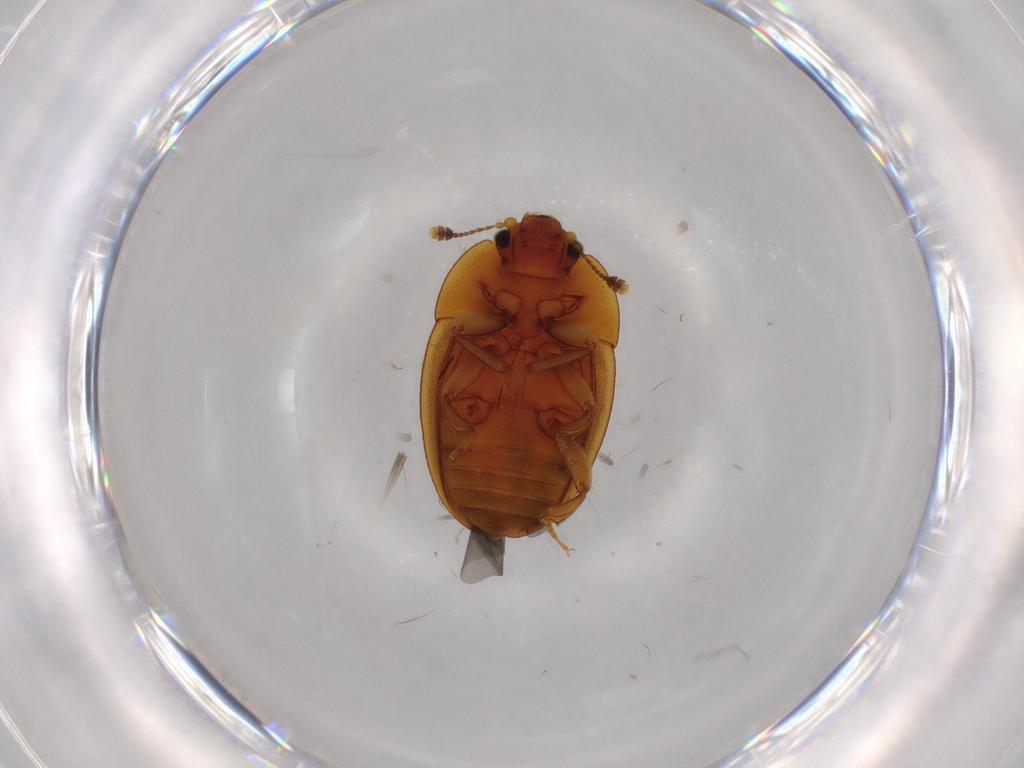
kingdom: Animalia
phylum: Arthropoda
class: Insecta
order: Coleoptera
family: Nitidulidae
